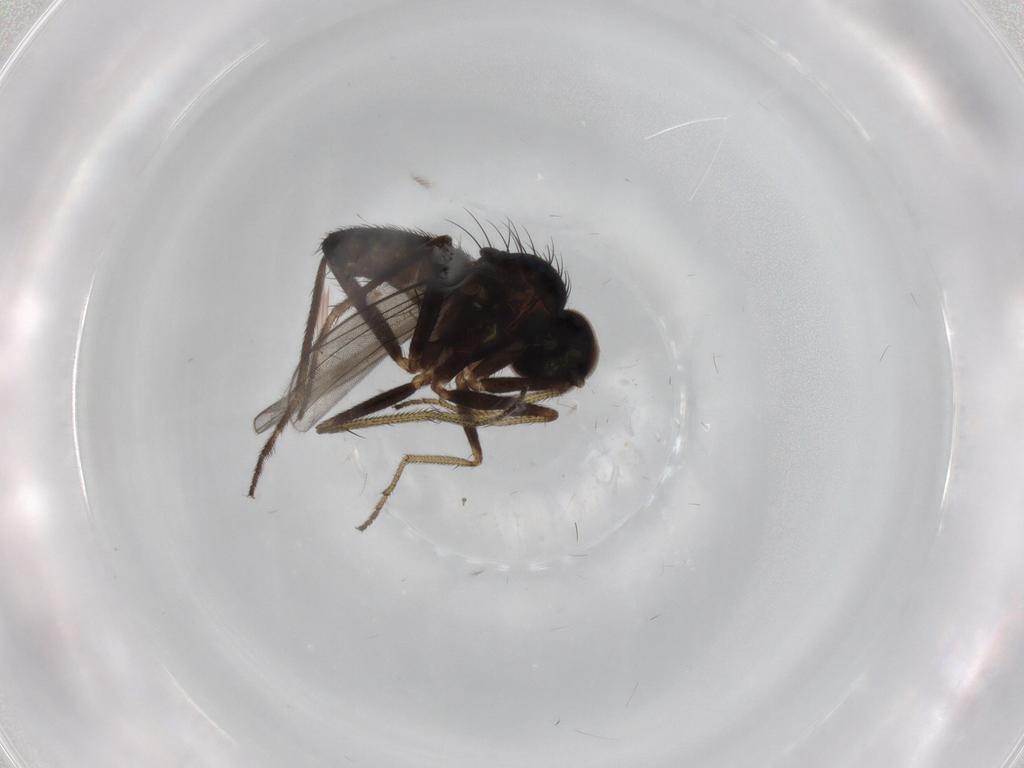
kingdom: Animalia
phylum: Arthropoda
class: Insecta
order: Diptera
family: Dolichopodidae
